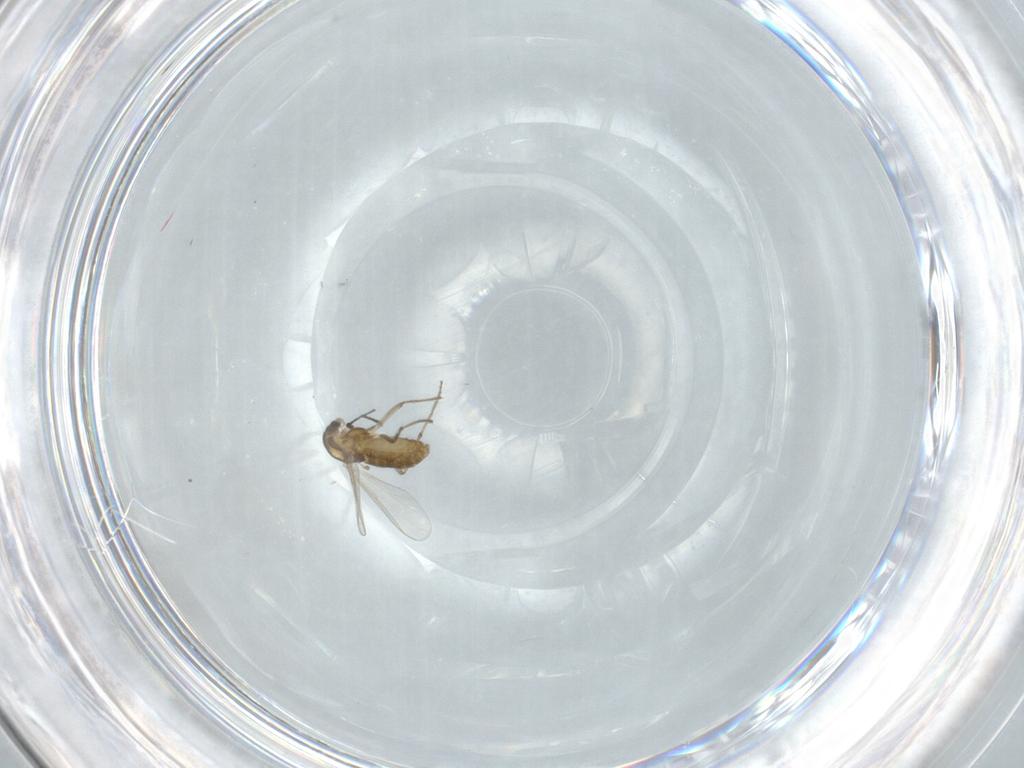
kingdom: Animalia
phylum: Arthropoda
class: Insecta
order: Diptera
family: Chironomidae
